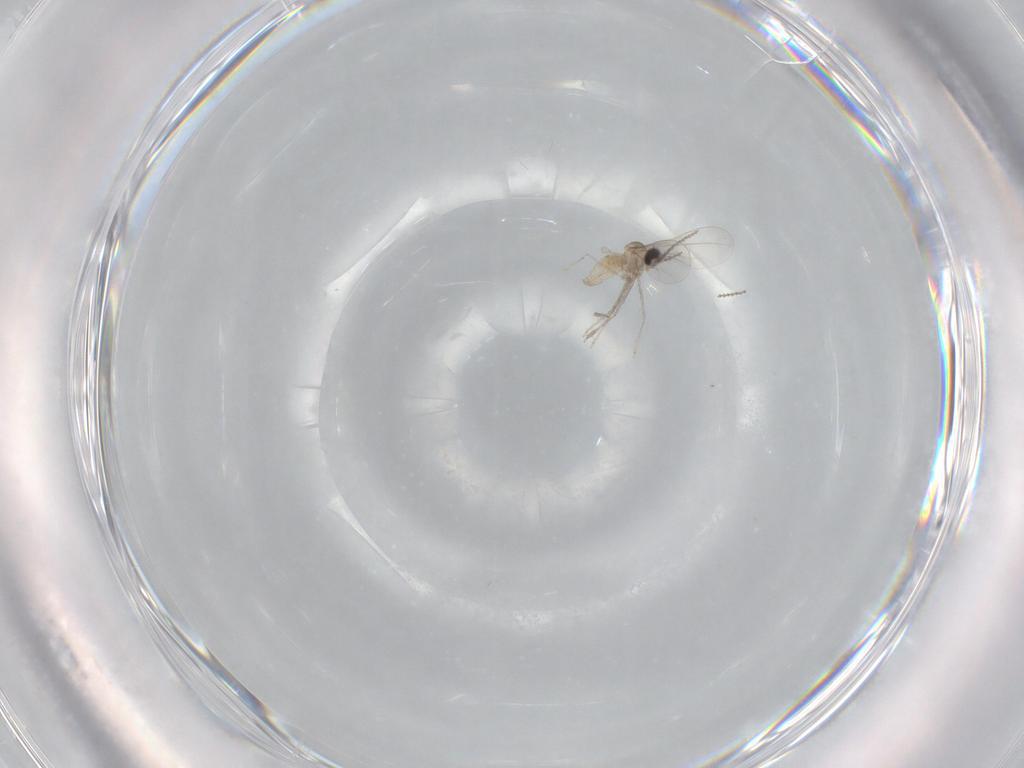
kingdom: Animalia
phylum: Arthropoda
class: Insecta
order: Diptera
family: Cecidomyiidae
